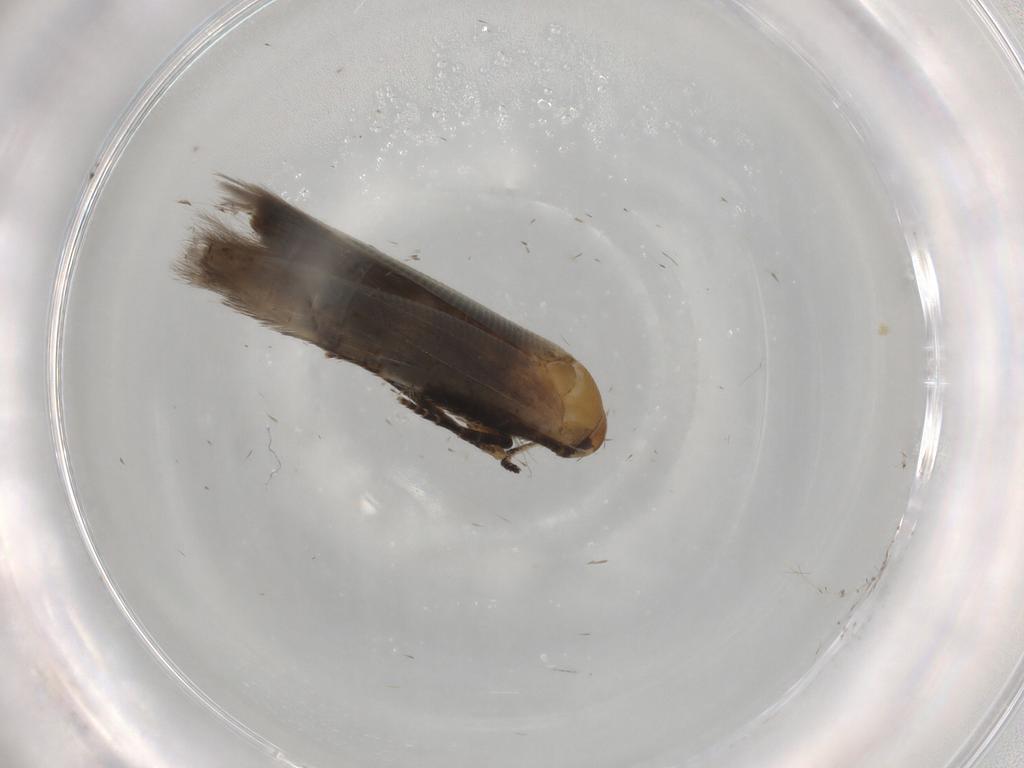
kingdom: Animalia
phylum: Arthropoda
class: Insecta
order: Lepidoptera
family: Cosmopterigidae
